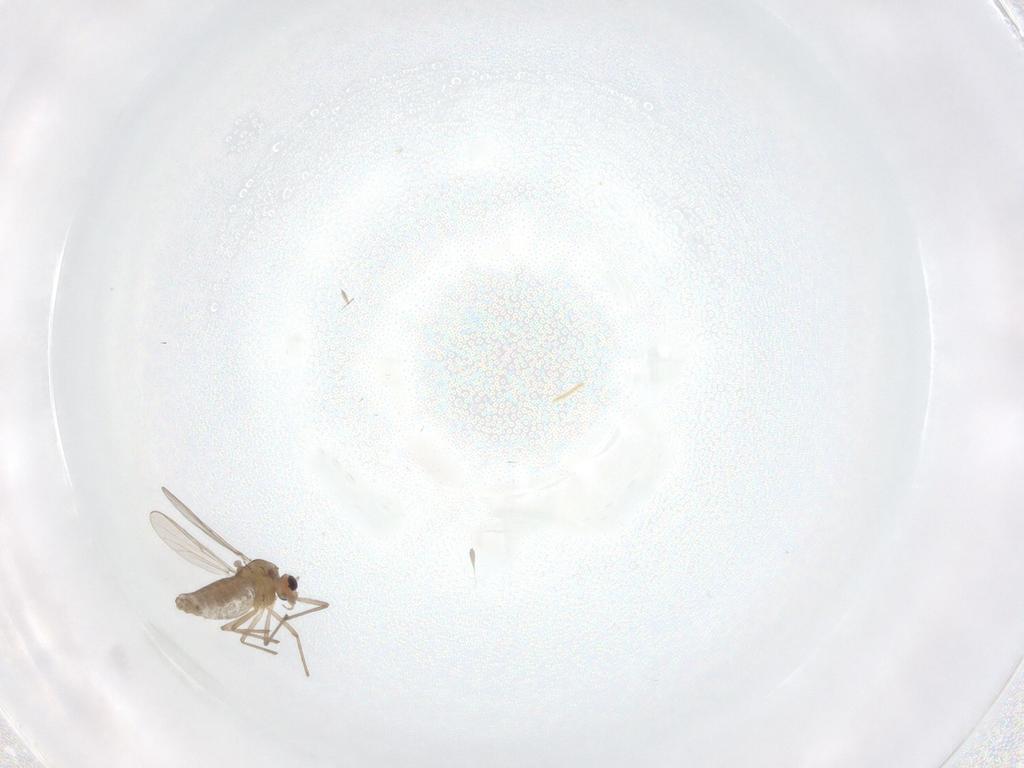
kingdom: Animalia
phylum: Arthropoda
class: Insecta
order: Diptera
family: Chironomidae
